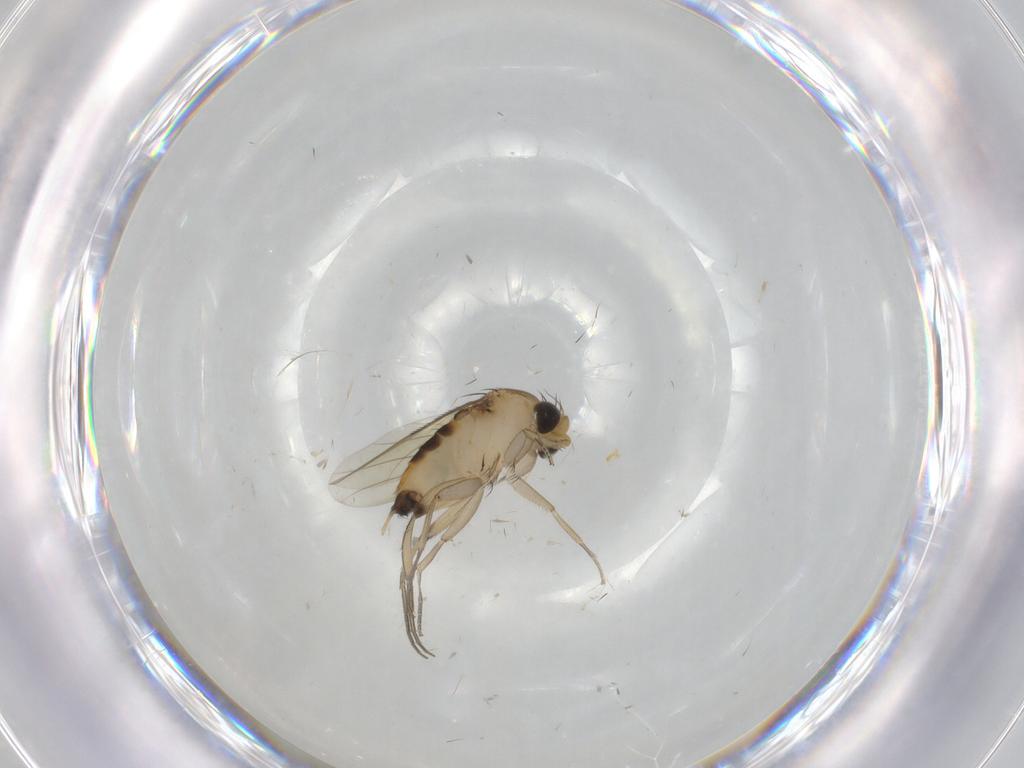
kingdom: Animalia
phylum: Arthropoda
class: Insecta
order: Diptera
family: Phoridae
